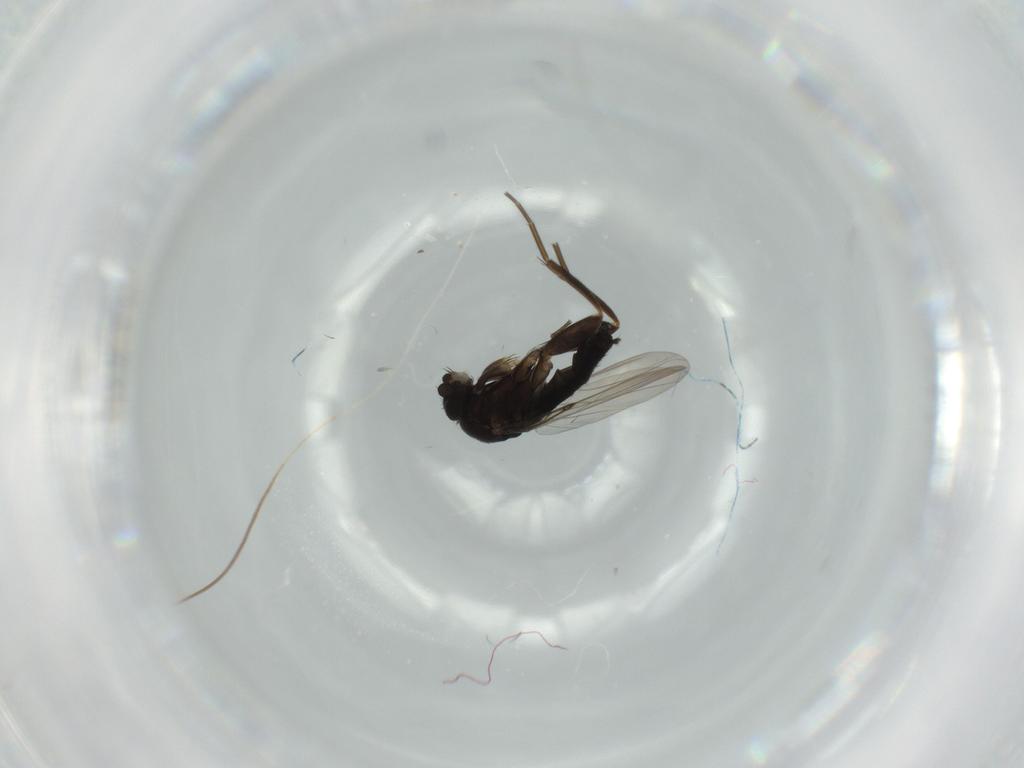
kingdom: Animalia
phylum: Arthropoda
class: Insecta
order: Diptera
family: Phoridae
